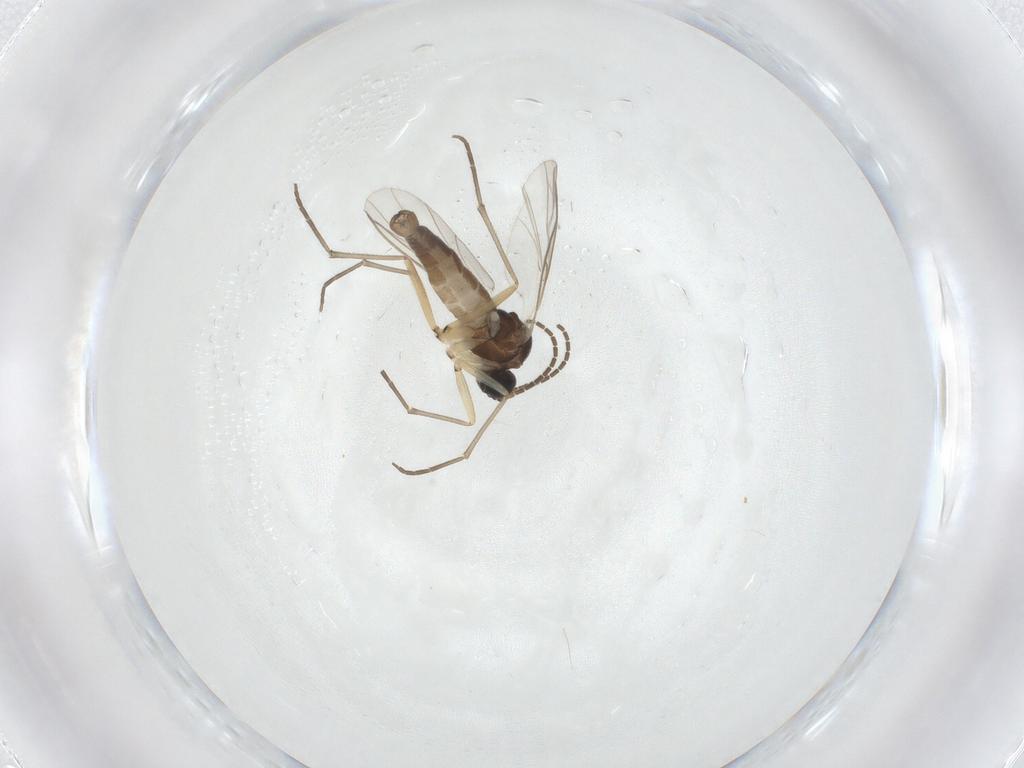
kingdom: Animalia
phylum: Arthropoda
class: Insecta
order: Diptera
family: Sciaridae
